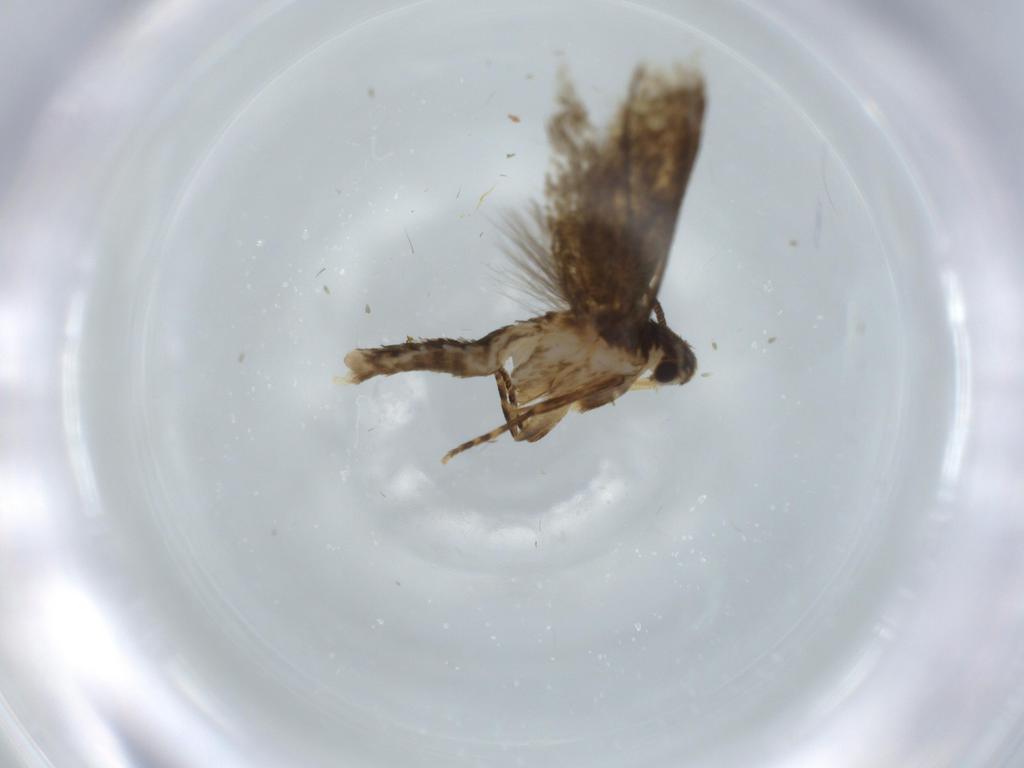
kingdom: Animalia
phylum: Arthropoda
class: Insecta
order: Lepidoptera
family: Tineidae
